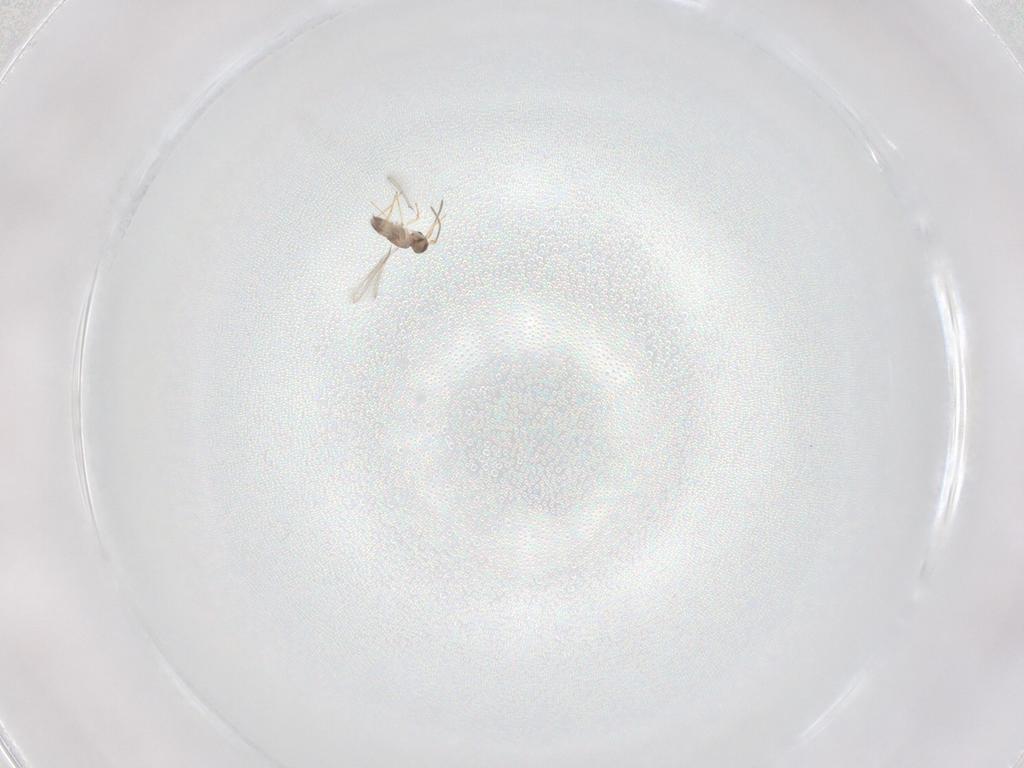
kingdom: Animalia
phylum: Arthropoda
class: Insecta
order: Hymenoptera
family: Mymaridae
